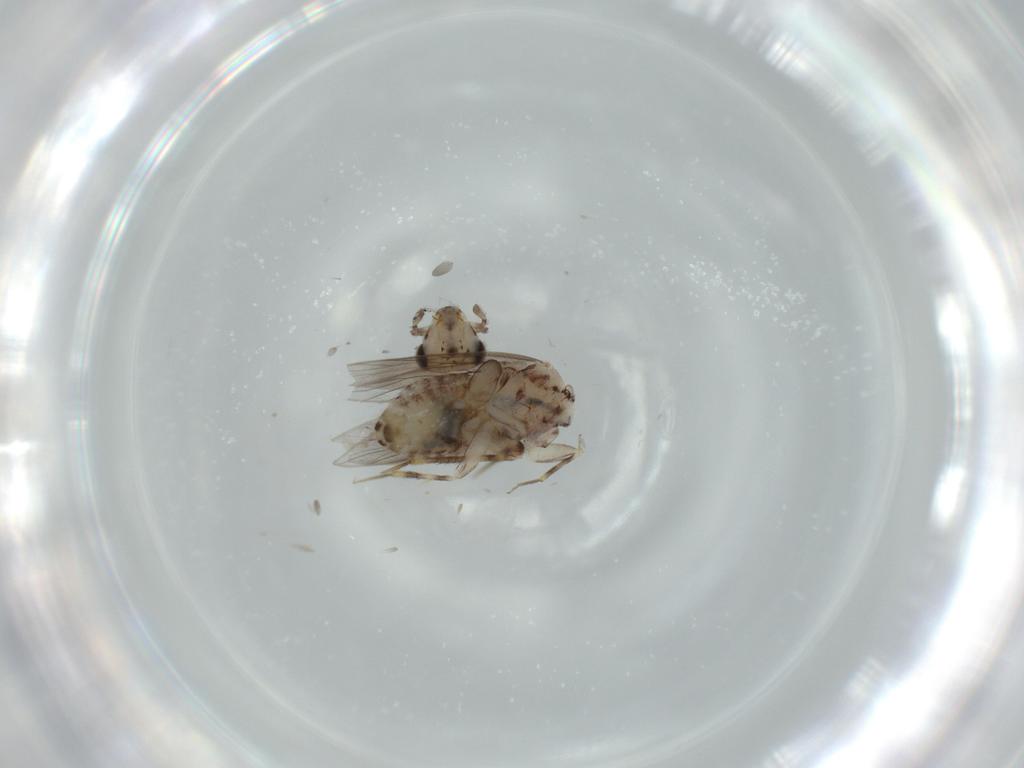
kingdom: Animalia
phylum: Arthropoda
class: Insecta
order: Psocodea
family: Lepidopsocidae
